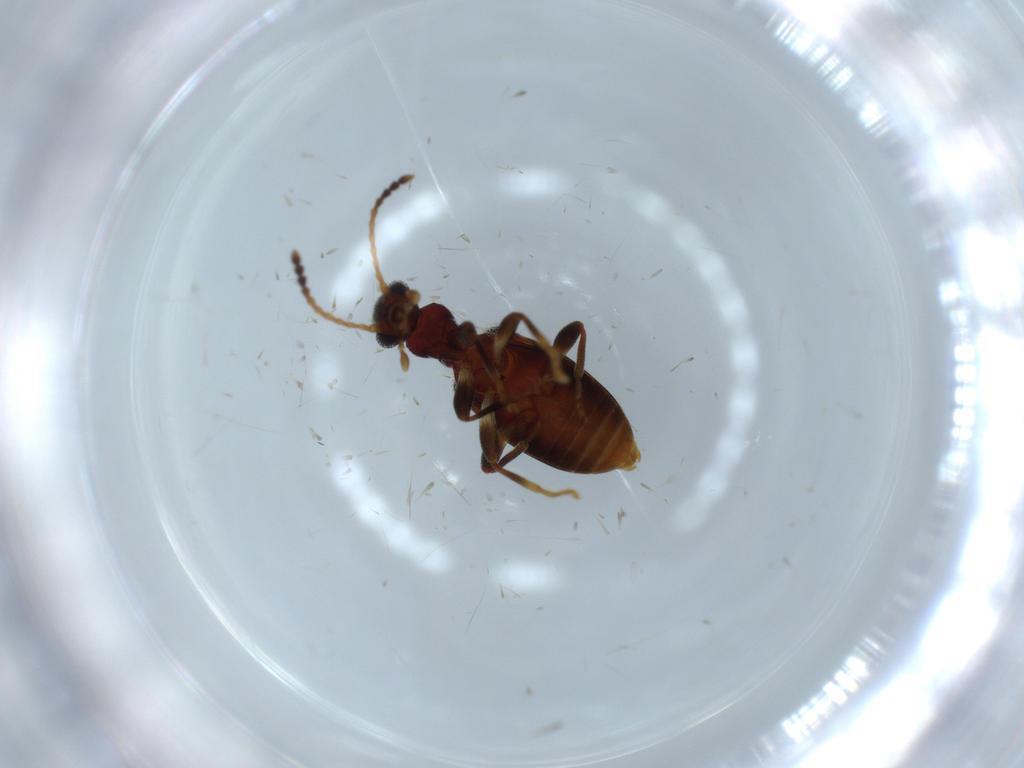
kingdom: Animalia
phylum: Arthropoda
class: Insecta
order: Coleoptera
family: Anthicidae
